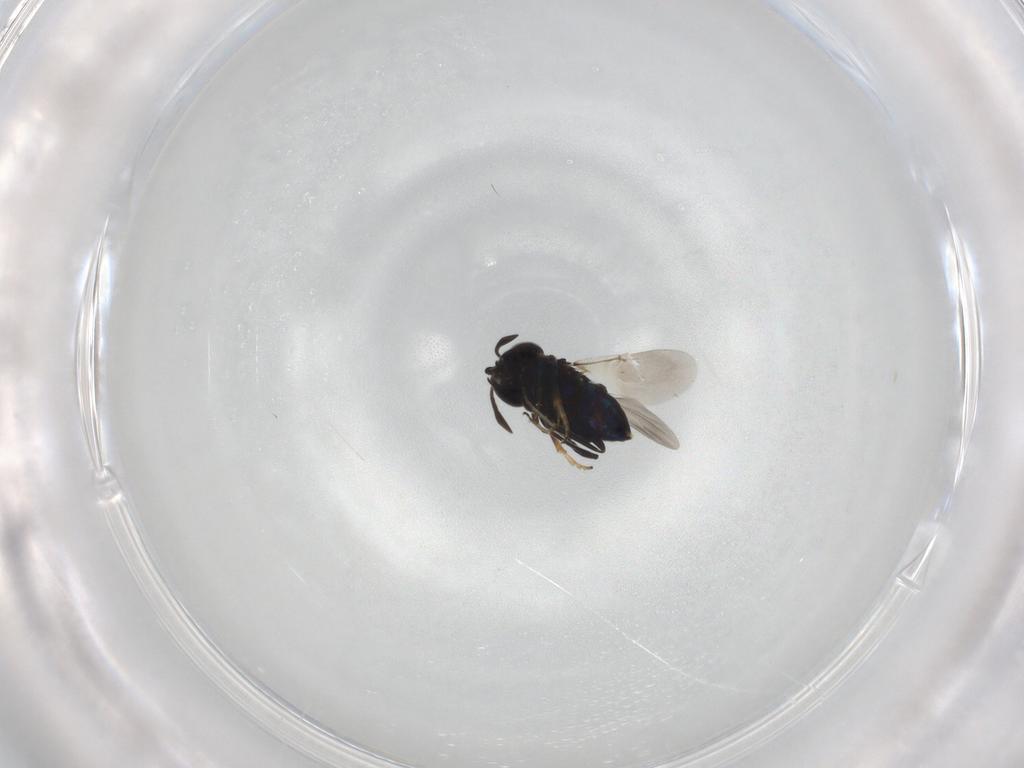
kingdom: Animalia
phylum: Arthropoda
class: Insecta
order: Hymenoptera
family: Chrysididae
